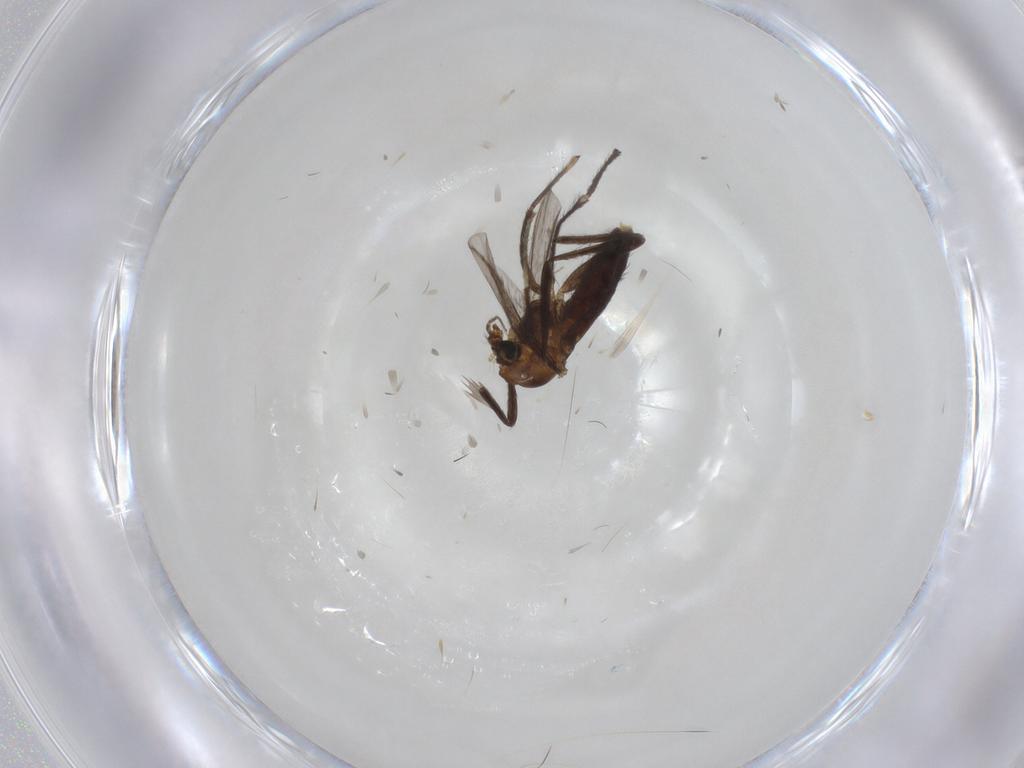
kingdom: Animalia
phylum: Arthropoda
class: Insecta
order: Diptera
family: Chironomidae
